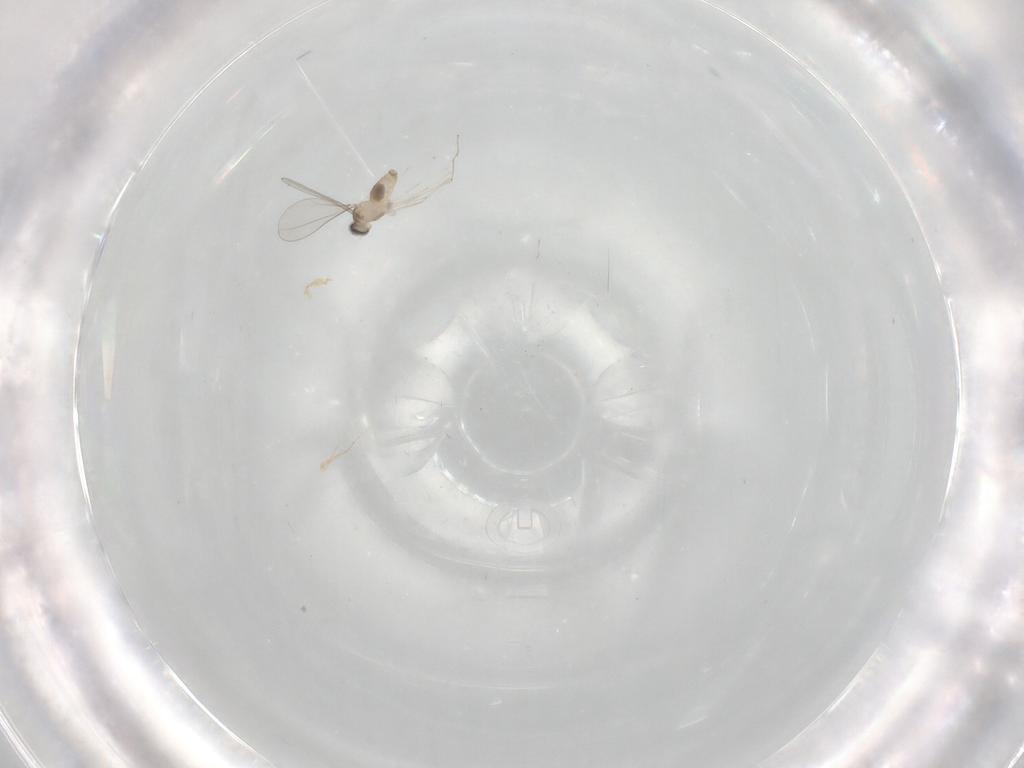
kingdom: Animalia
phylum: Arthropoda
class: Insecta
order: Diptera
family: Cecidomyiidae
